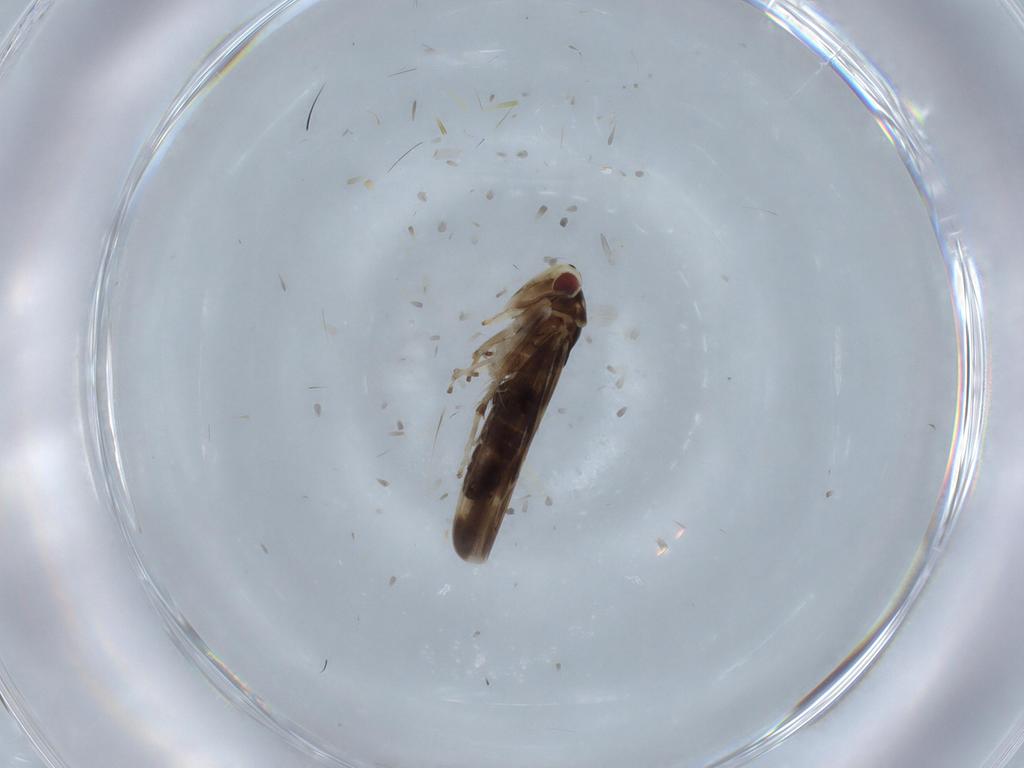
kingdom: Animalia
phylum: Arthropoda
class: Insecta
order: Hemiptera
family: Cicadellidae
